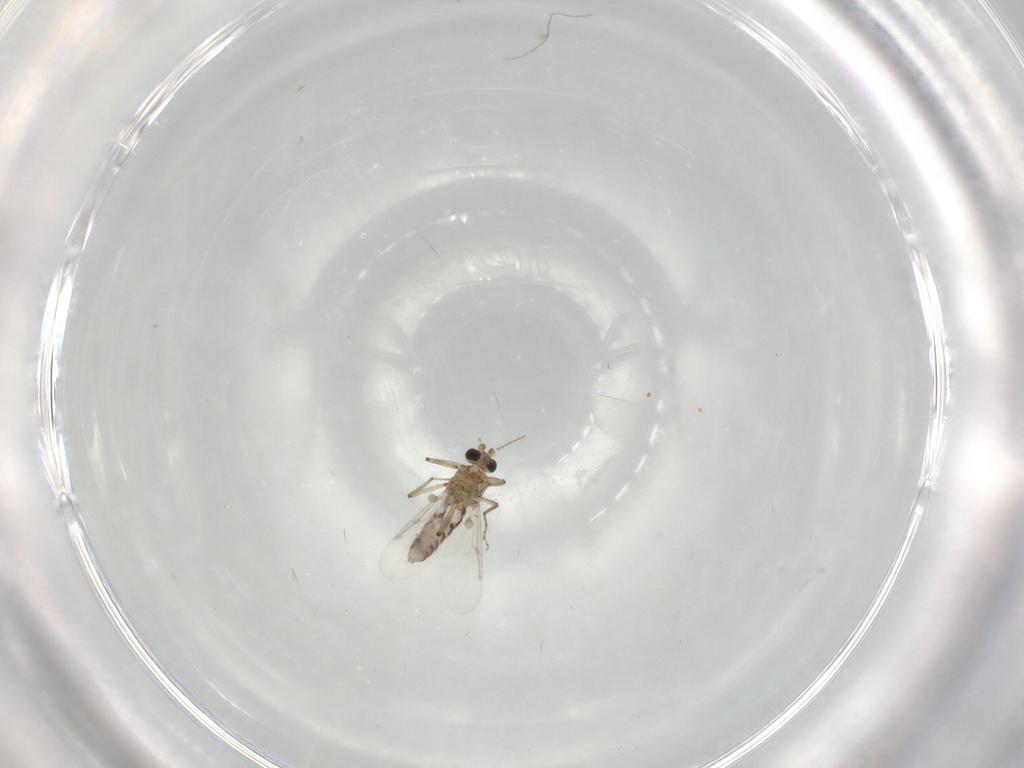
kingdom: Animalia
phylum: Arthropoda
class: Insecta
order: Diptera
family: Ceratopogonidae
